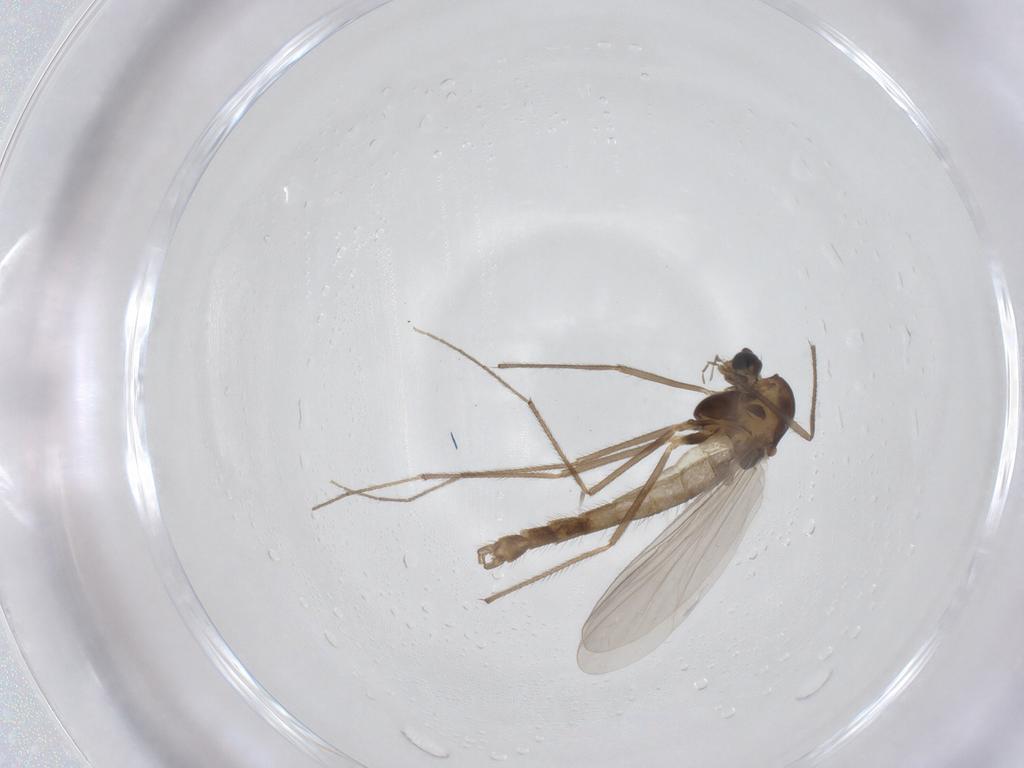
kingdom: Animalia
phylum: Arthropoda
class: Insecta
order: Diptera
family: Chironomidae
